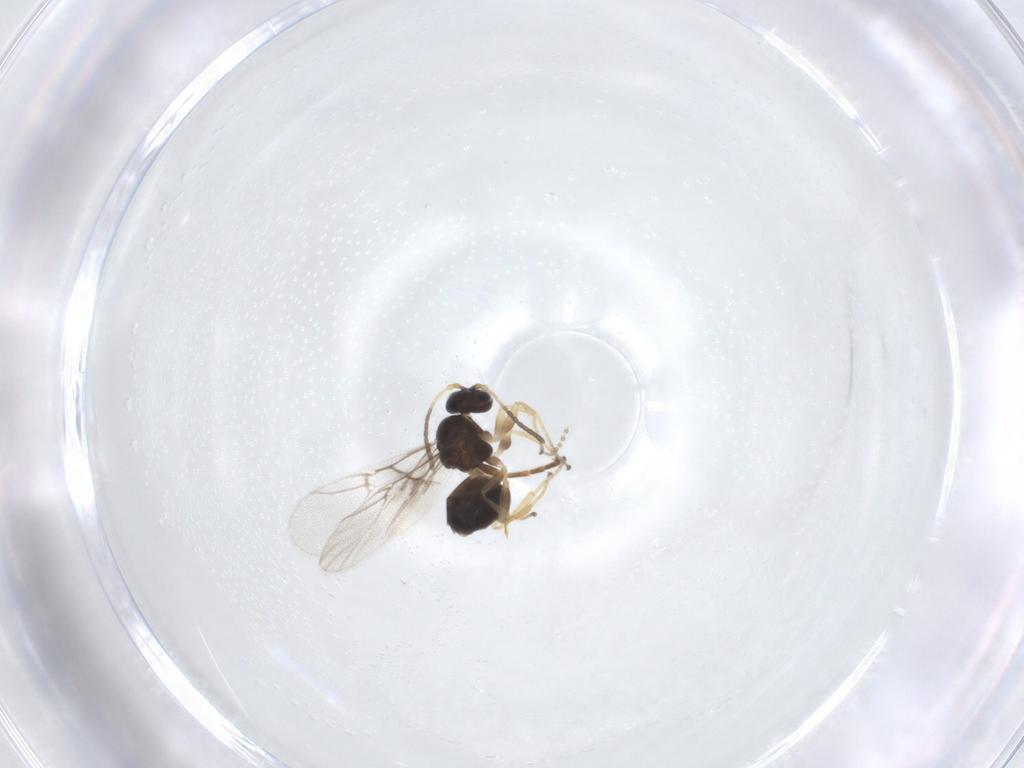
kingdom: Animalia
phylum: Arthropoda
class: Insecta
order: Hymenoptera
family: Cynipidae
